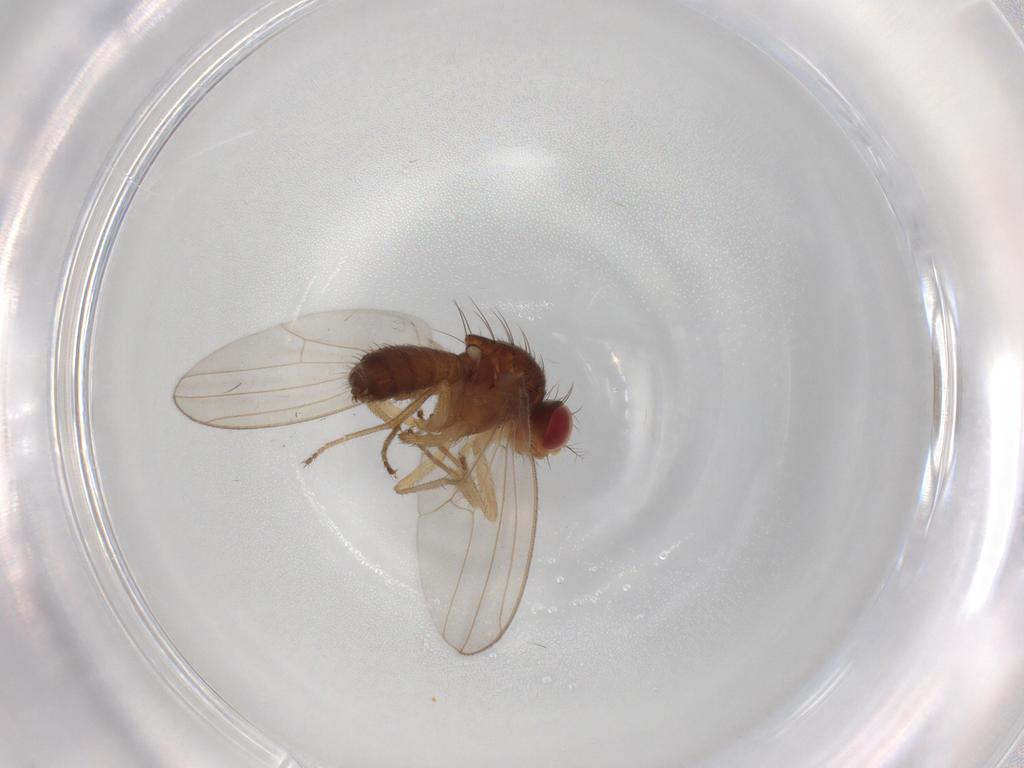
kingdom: Animalia
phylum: Arthropoda
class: Insecta
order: Diptera
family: Drosophilidae
